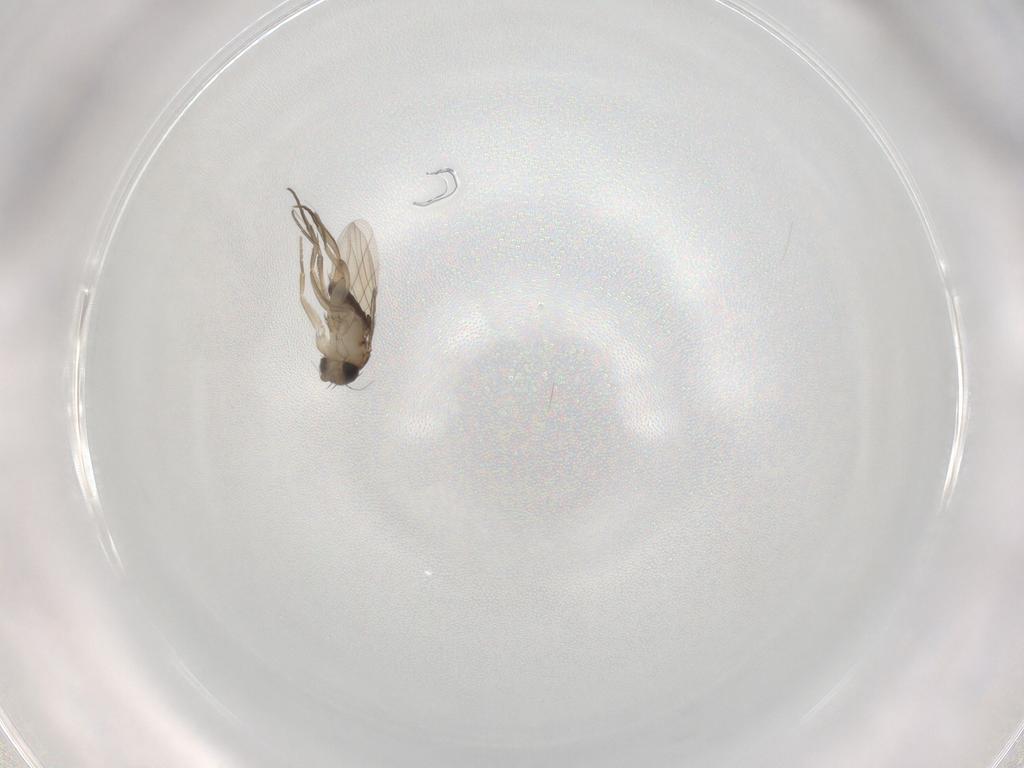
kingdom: Animalia
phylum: Arthropoda
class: Insecta
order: Diptera
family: Phoridae
